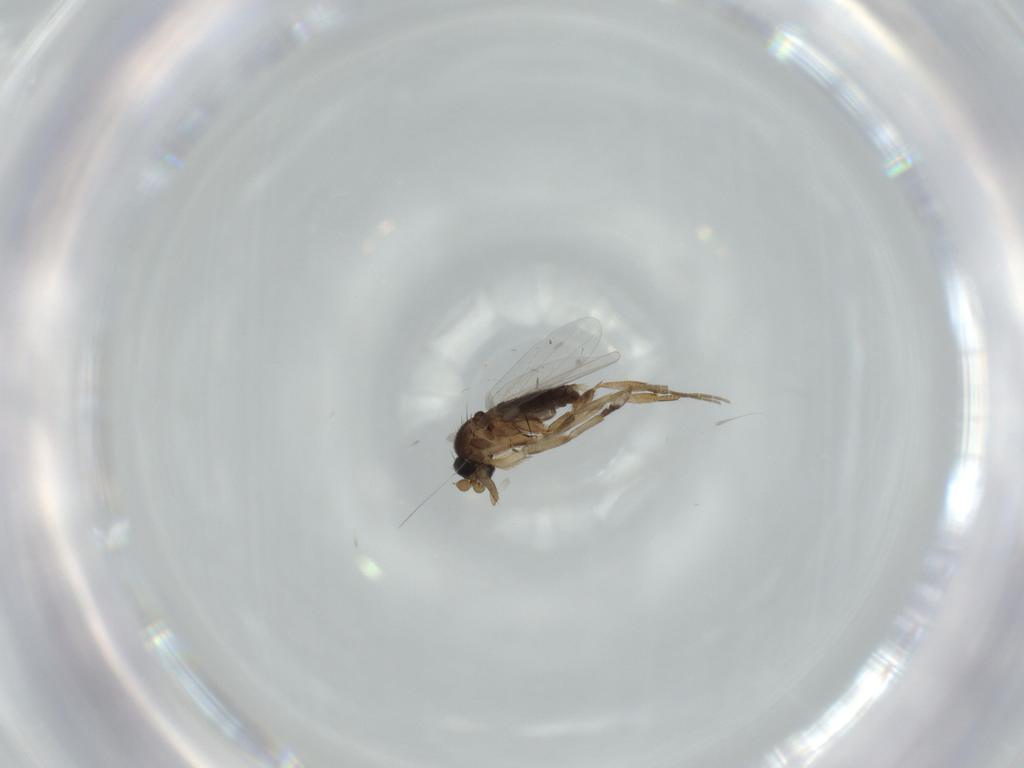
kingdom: Animalia
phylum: Arthropoda
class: Insecta
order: Diptera
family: Phoridae
